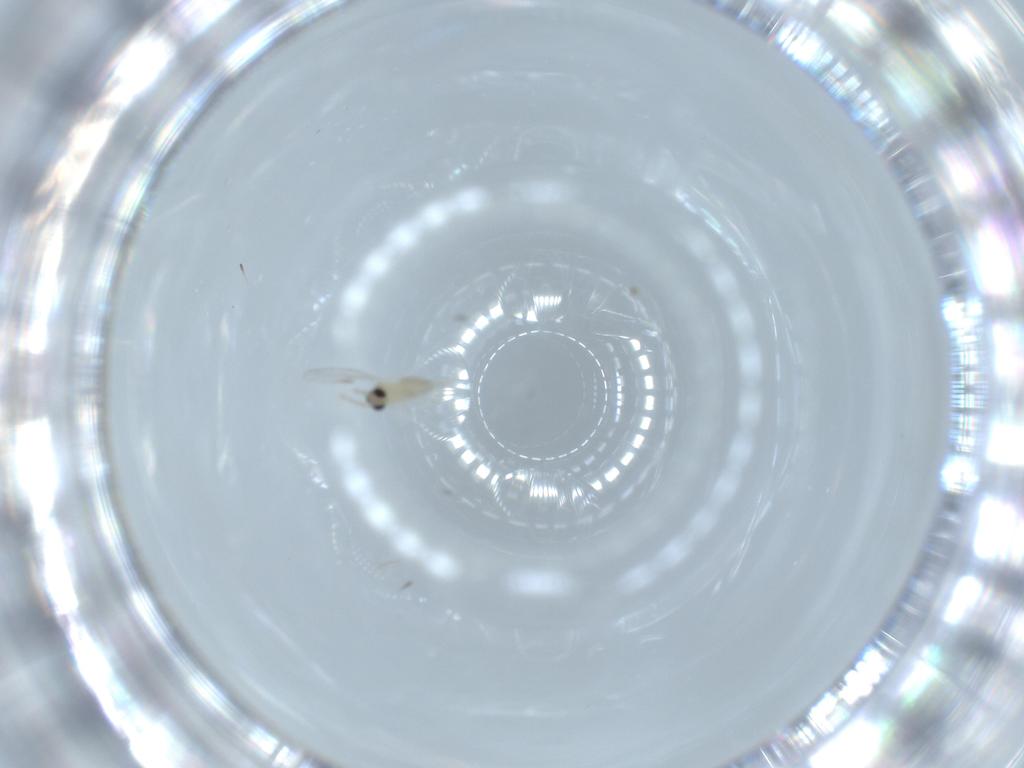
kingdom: Animalia
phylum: Arthropoda
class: Insecta
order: Diptera
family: Cecidomyiidae
